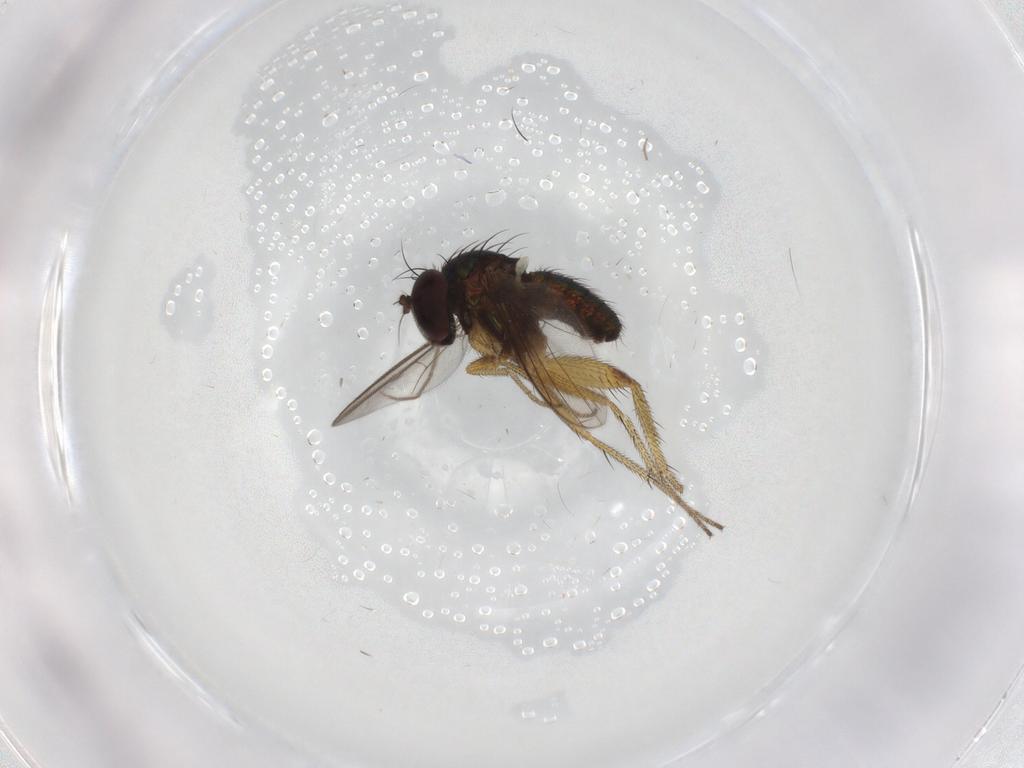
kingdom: Animalia
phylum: Arthropoda
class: Insecta
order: Diptera
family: Chironomidae
